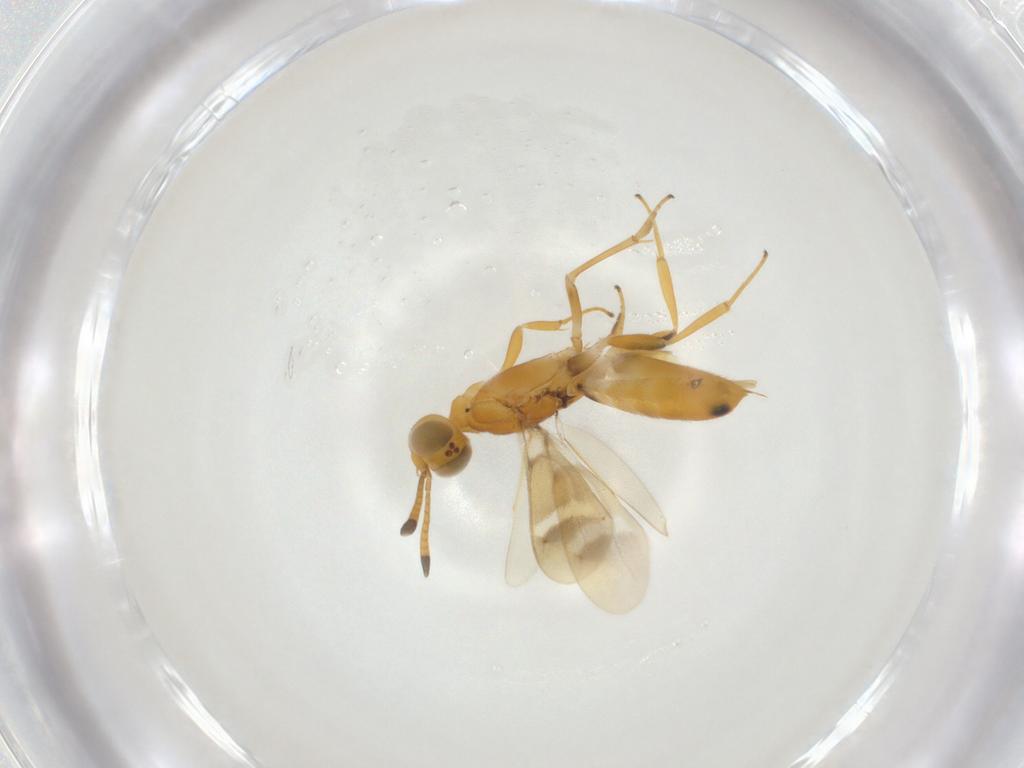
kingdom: Animalia
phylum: Arthropoda
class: Insecta
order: Hymenoptera
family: Eupelmidae
